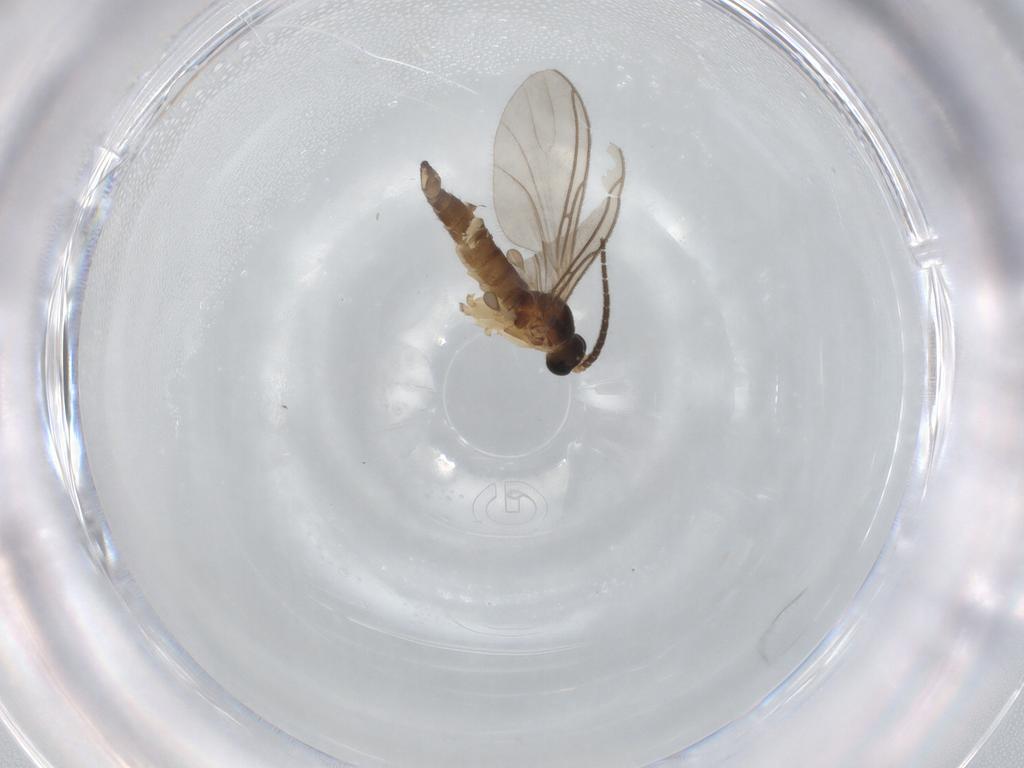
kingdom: Animalia
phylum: Arthropoda
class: Insecta
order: Diptera
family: Sciaridae
